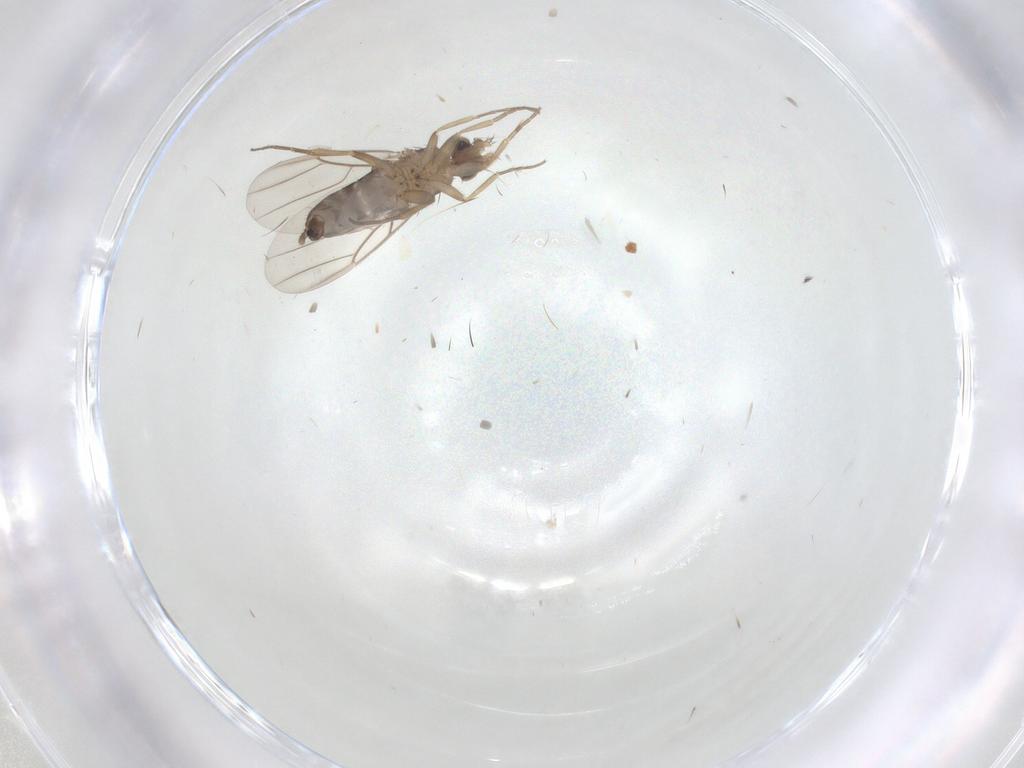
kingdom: Animalia
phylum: Arthropoda
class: Insecta
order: Diptera
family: Phoridae
